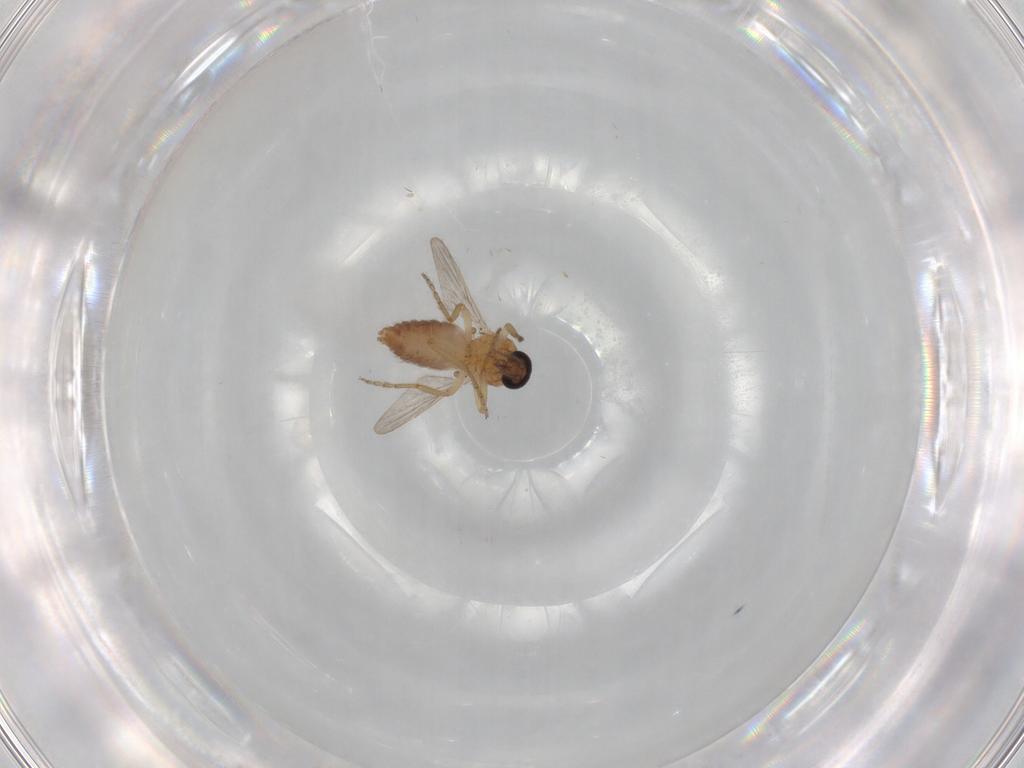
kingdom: Animalia
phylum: Arthropoda
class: Insecta
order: Diptera
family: Ceratopogonidae
